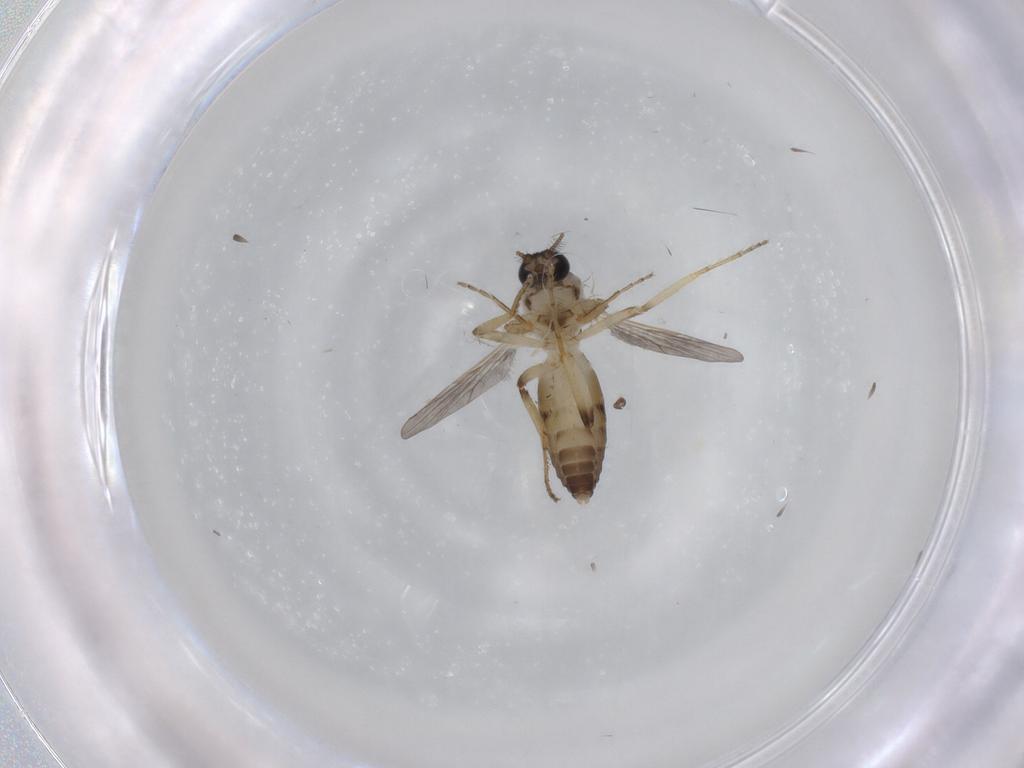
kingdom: Animalia
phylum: Arthropoda
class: Insecta
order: Diptera
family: Ceratopogonidae
